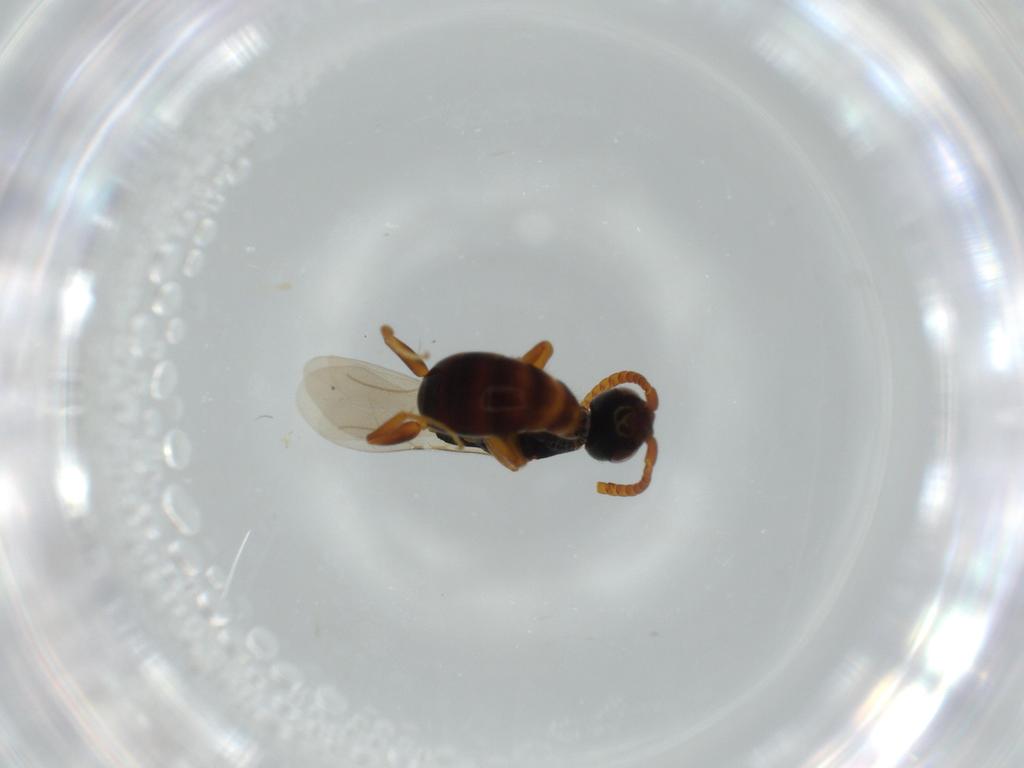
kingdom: Animalia
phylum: Arthropoda
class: Insecta
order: Hymenoptera
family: Bethylidae
